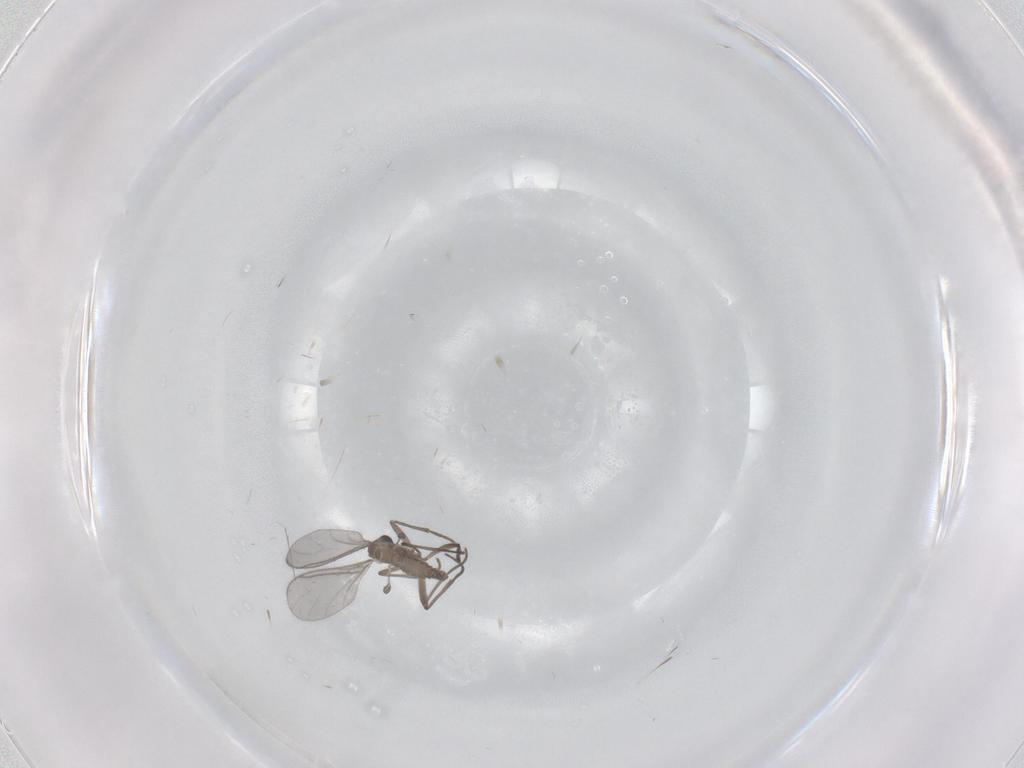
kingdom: Animalia
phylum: Arthropoda
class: Insecta
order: Diptera
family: Sciaridae
